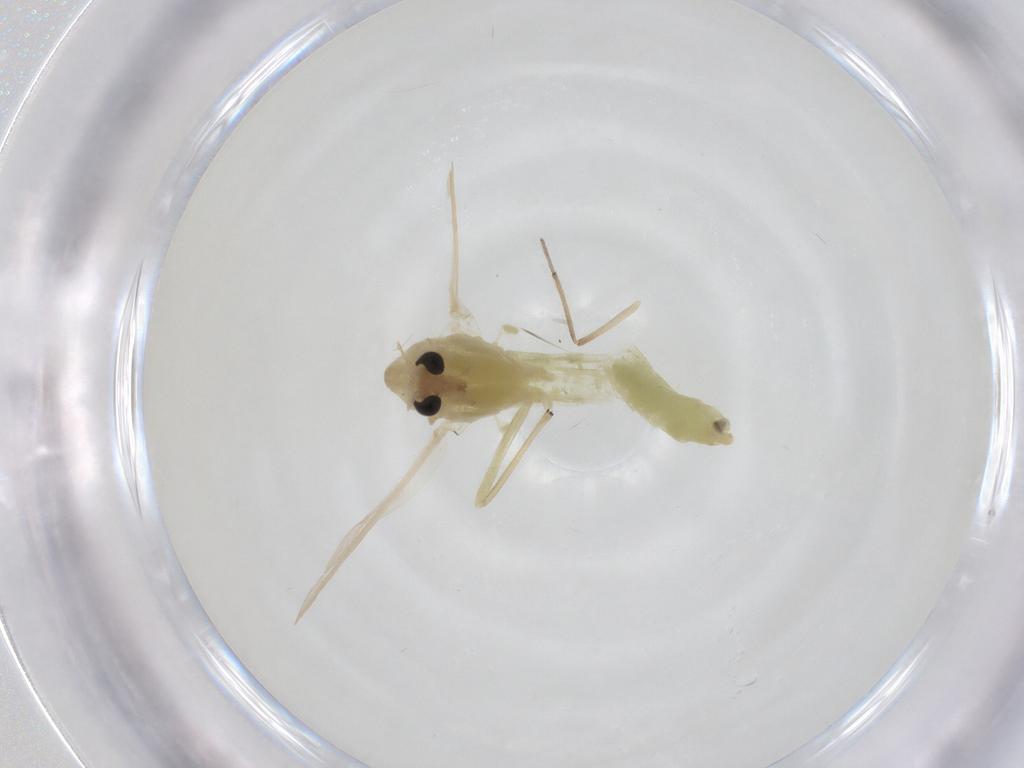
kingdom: Animalia
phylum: Arthropoda
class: Insecta
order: Diptera
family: Chironomidae
